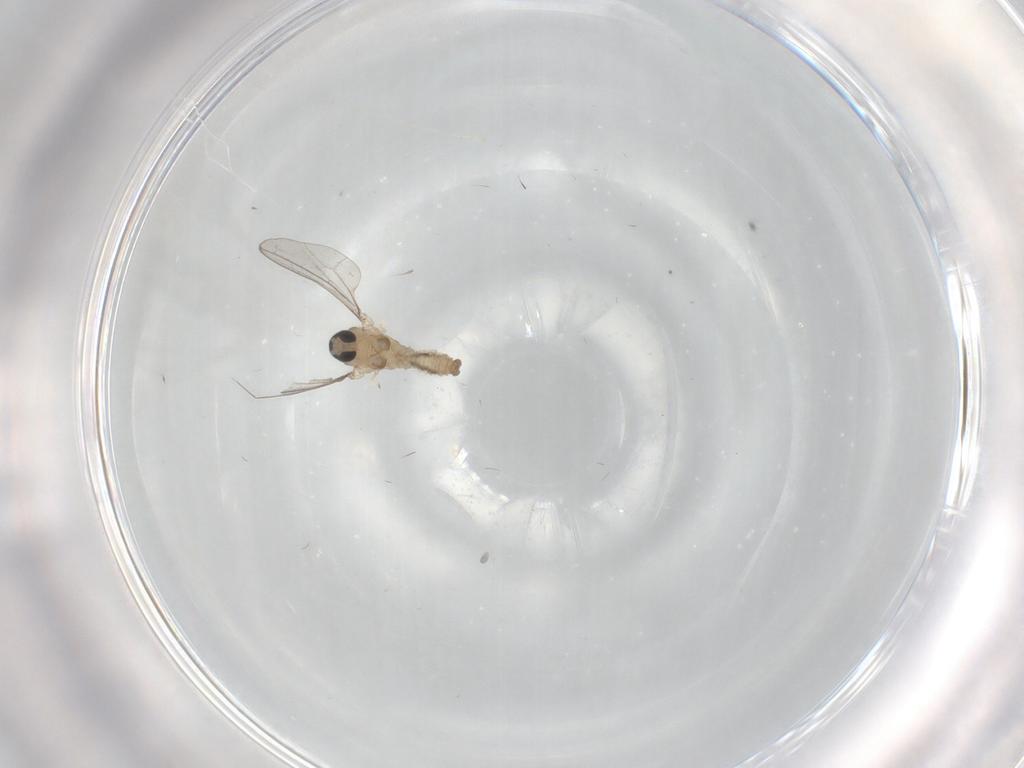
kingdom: Animalia
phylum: Arthropoda
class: Insecta
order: Diptera
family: Cecidomyiidae
